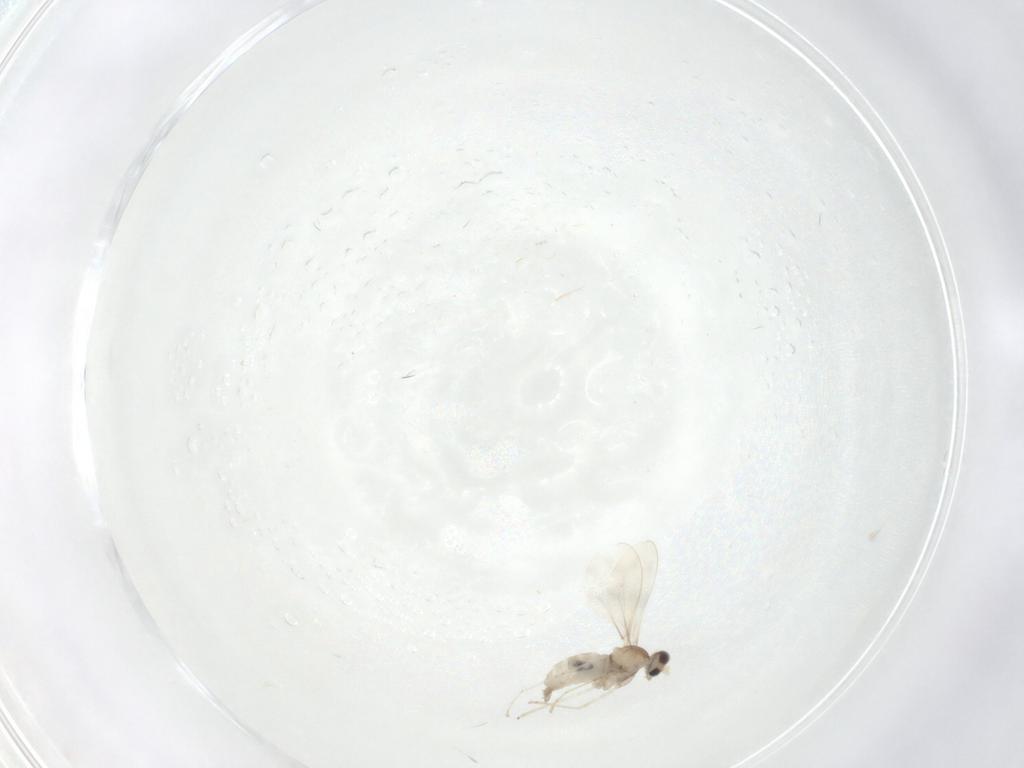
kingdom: Animalia
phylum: Arthropoda
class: Insecta
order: Diptera
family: Cecidomyiidae
